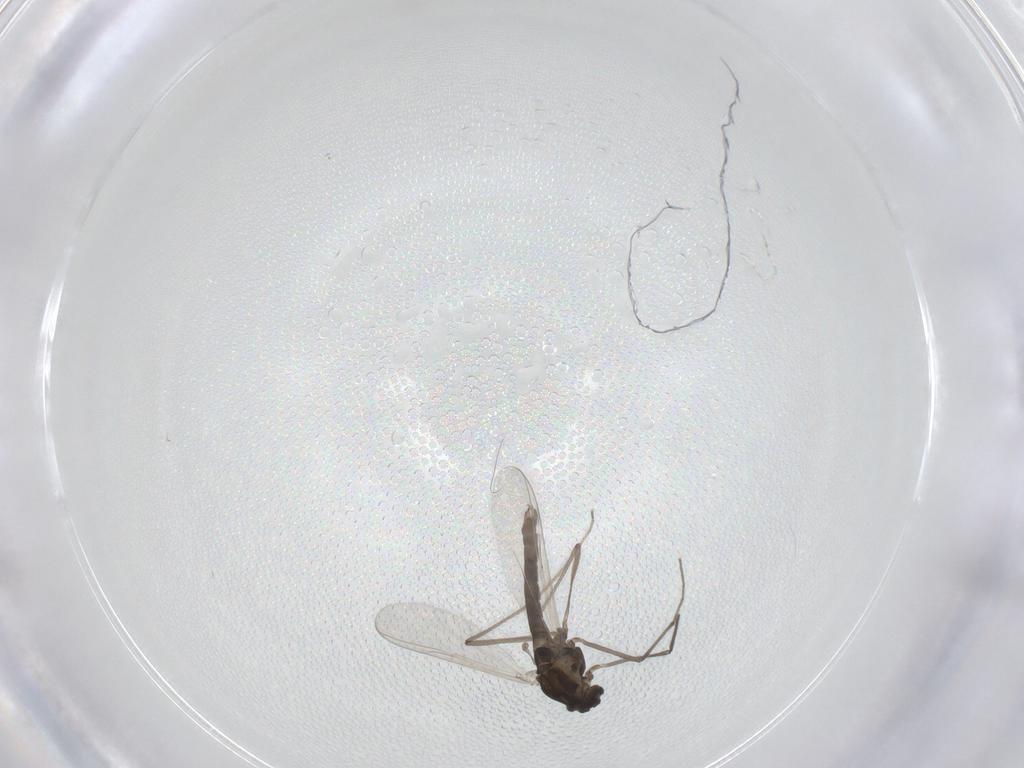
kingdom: Animalia
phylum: Arthropoda
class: Insecta
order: Diptera
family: Chironomidae
